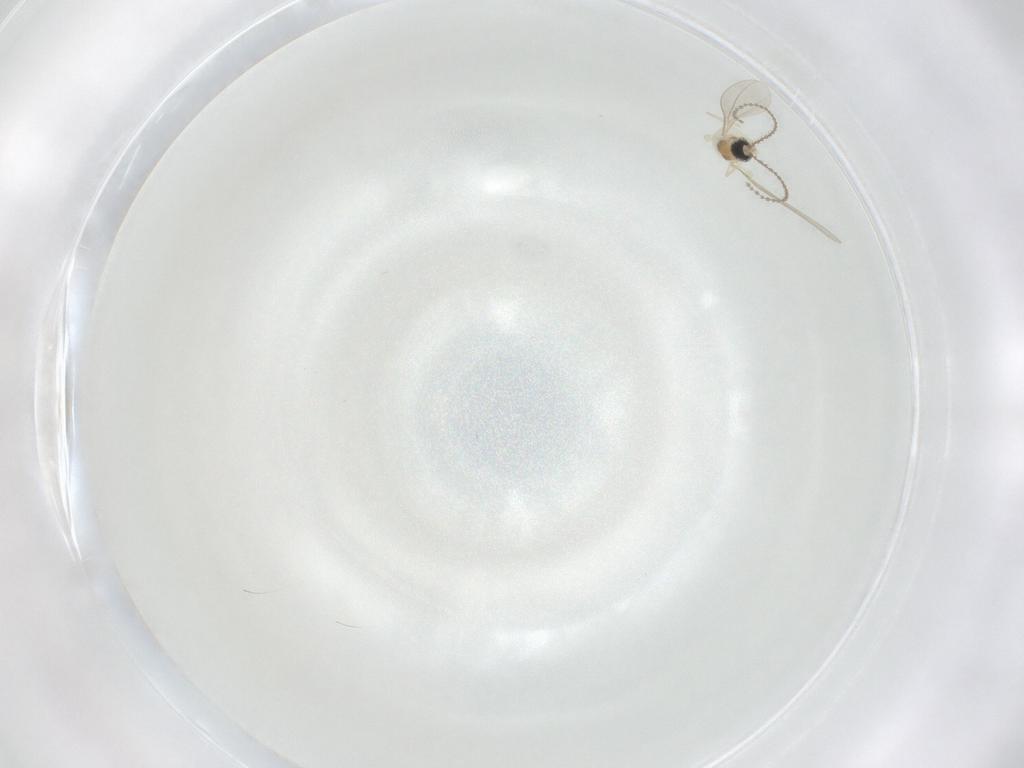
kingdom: Animalia
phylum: Arthropoda
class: Insecta
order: Diptera
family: Cecidomyiidae
